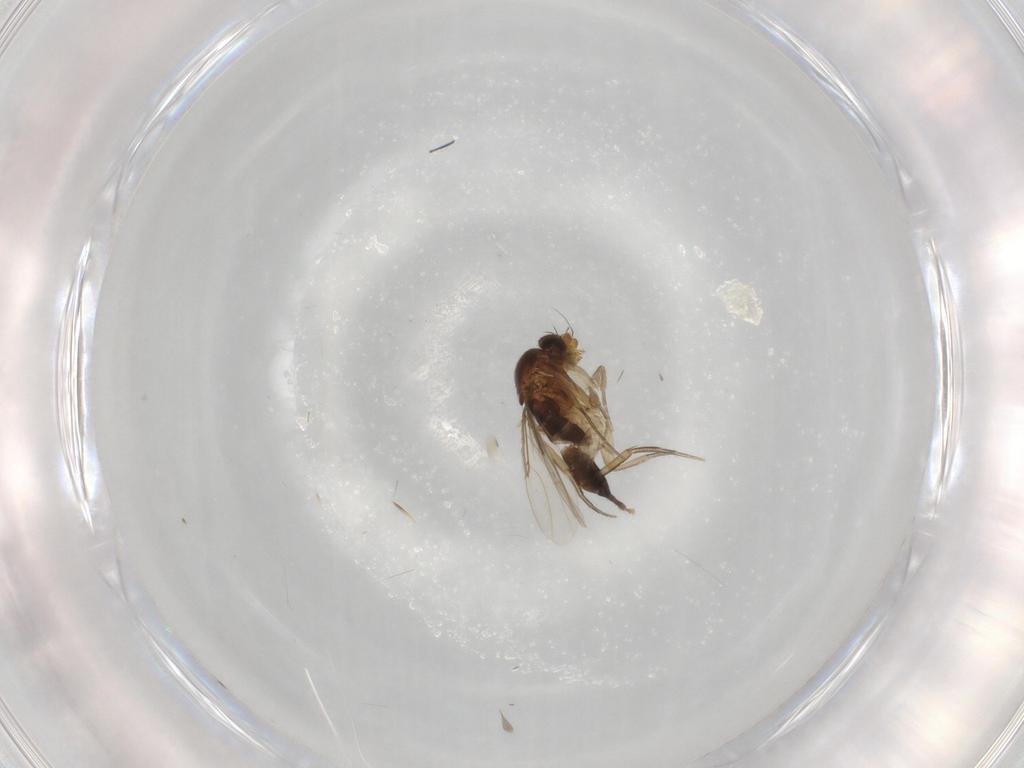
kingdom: Animalia
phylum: Arthropoda
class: Insecta
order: Diptera
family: Phoridae
